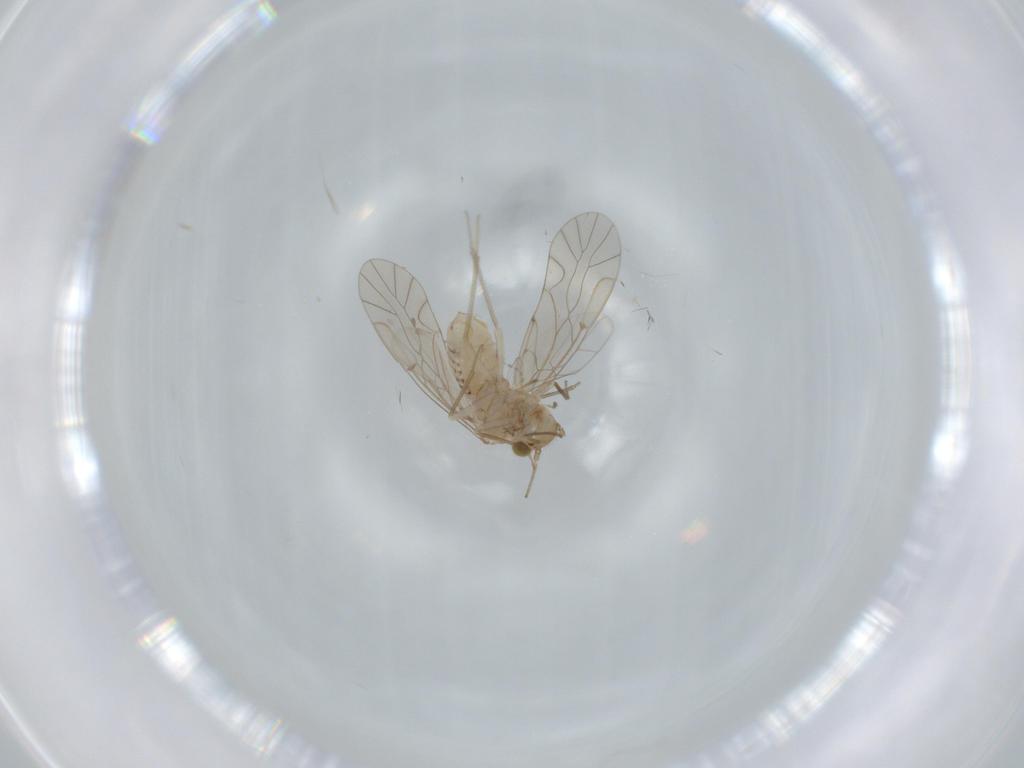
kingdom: Animalia
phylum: Arthropoda
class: Insecta
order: Psocodea
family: Lachesillidae
